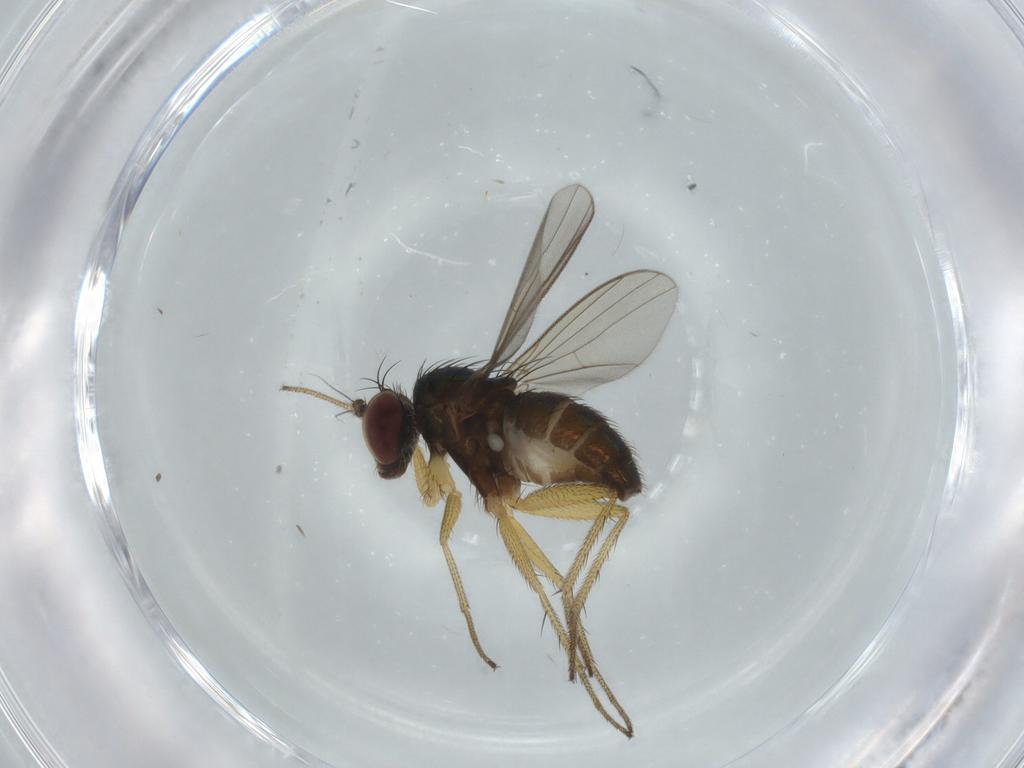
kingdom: Animalia
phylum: Arthropoda
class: Insecta
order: Diptera
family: Dolichopodidae
